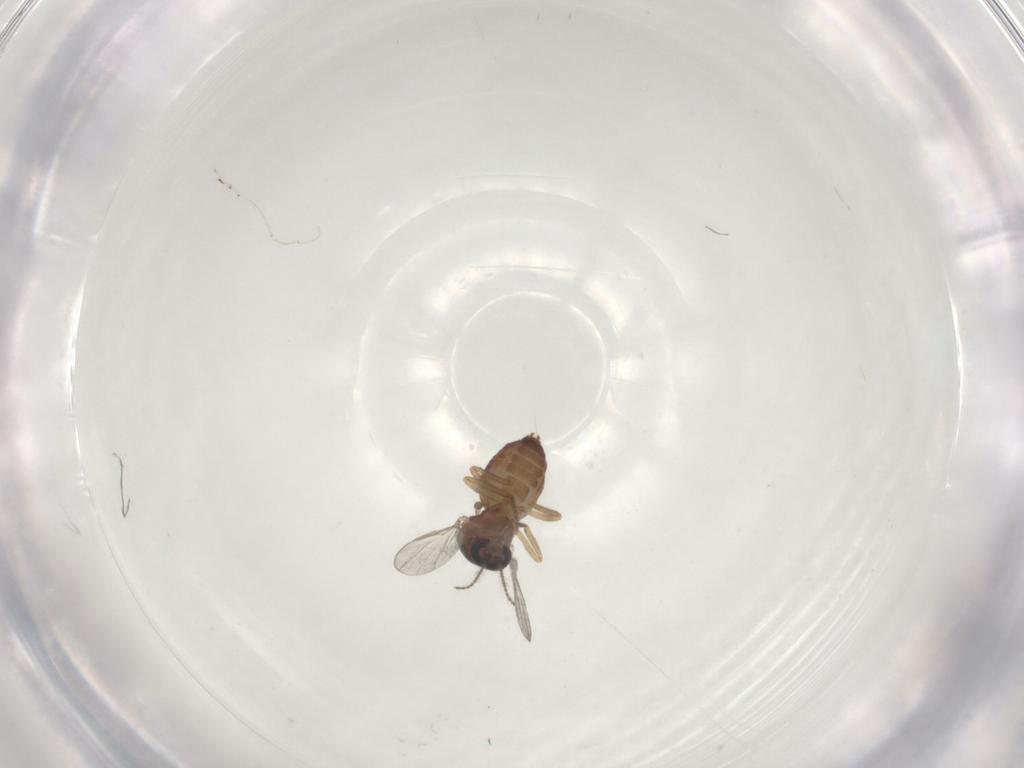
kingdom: Animalia
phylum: Arthropoda
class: Insecta
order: Diptera
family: Ceratopogonidae
